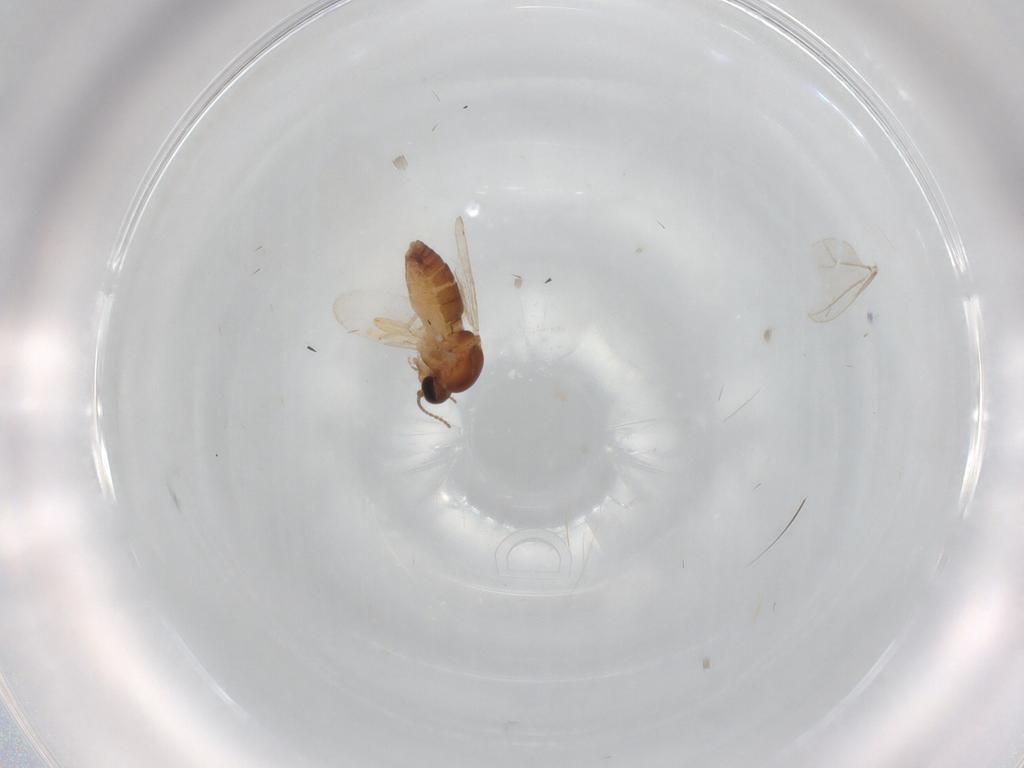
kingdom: Animalia
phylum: Arthropoda
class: Insecta
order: Diptera
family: Ceratopogonidae
